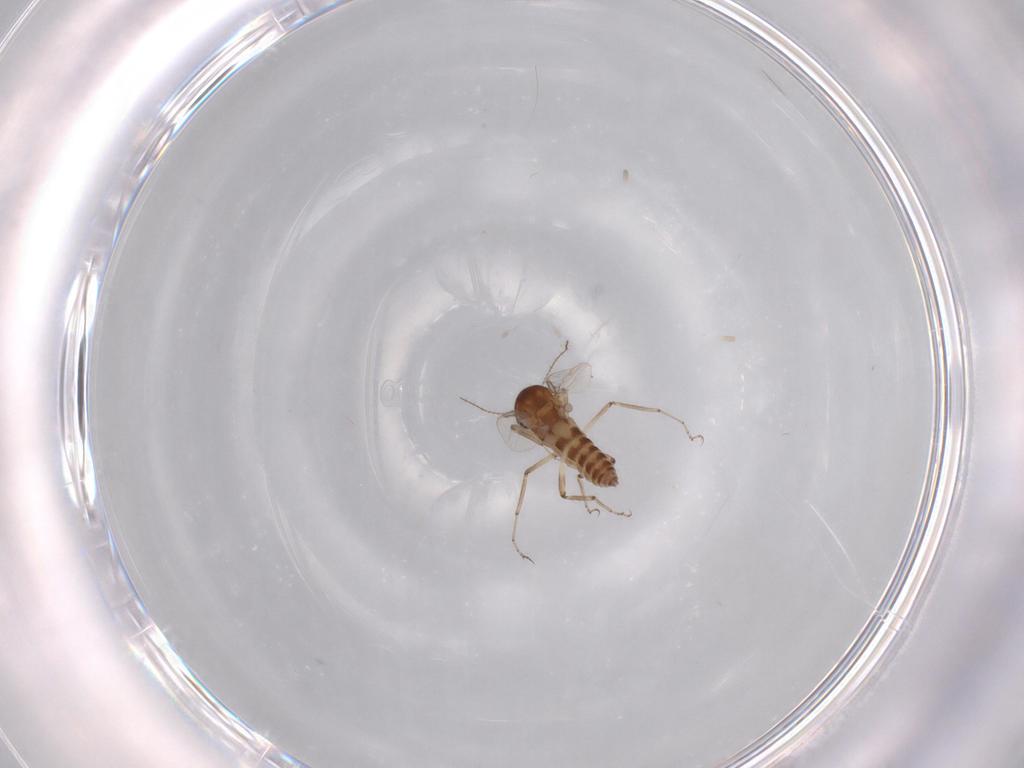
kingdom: Animalia
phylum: Arthropoda
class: Insecta
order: Diptera
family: Ceratopogonidae
